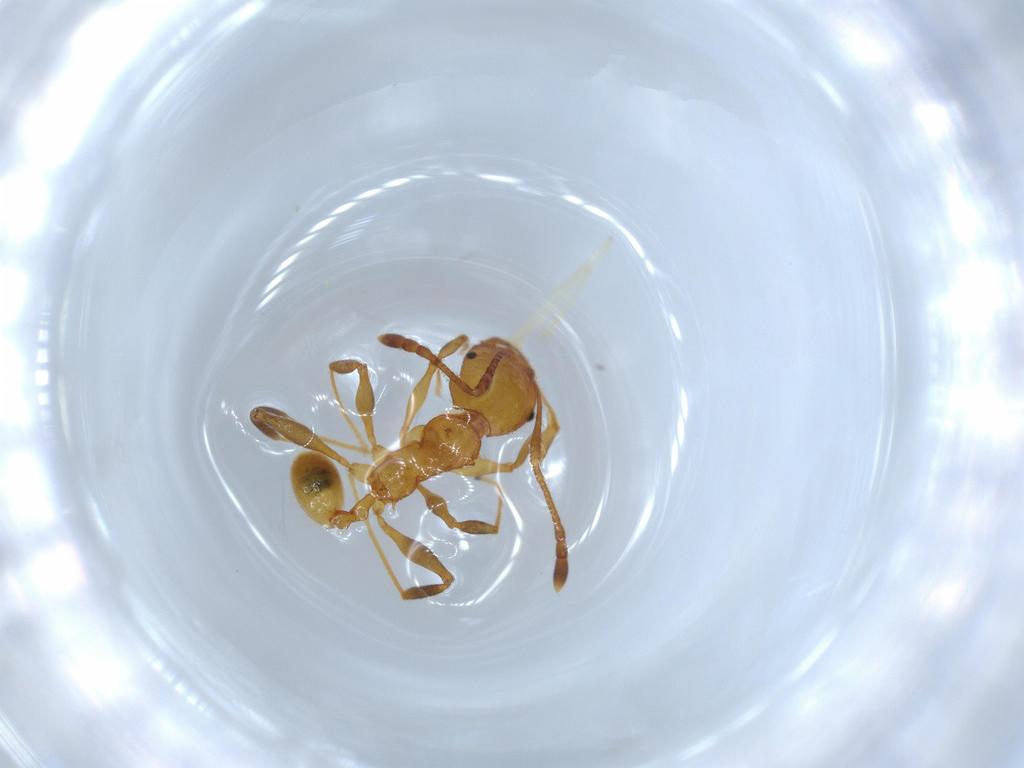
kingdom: Animalia
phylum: Arthropoda
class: Insecta
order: Hymenoptera
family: Formicidae
